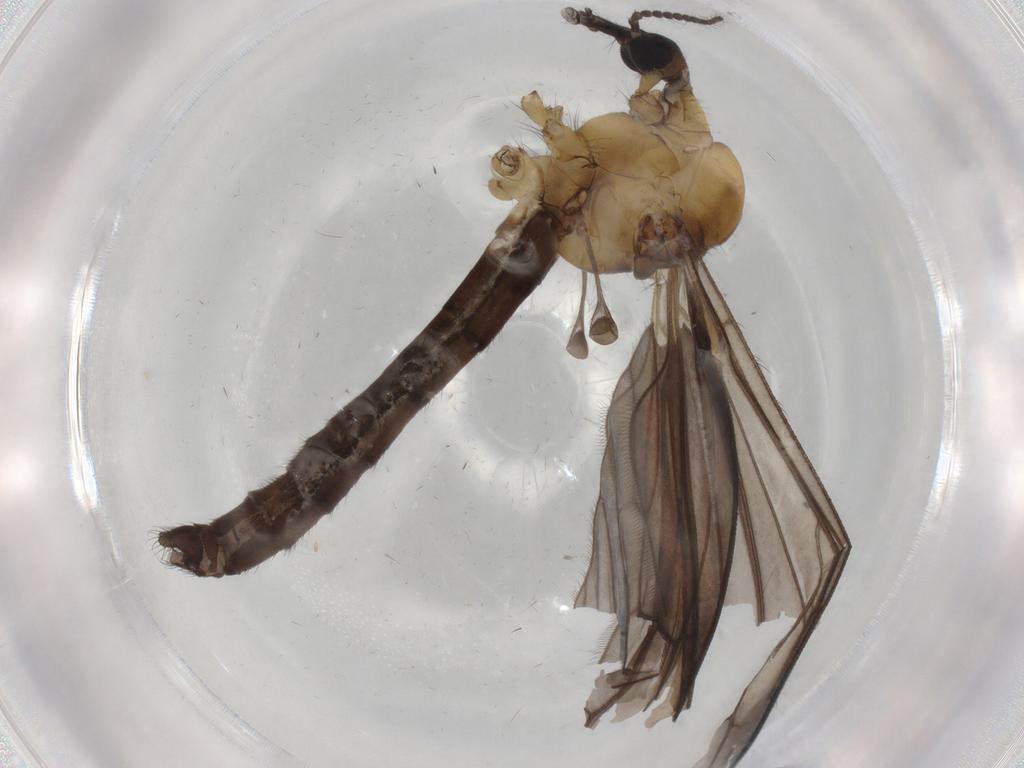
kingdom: Animalia
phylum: Arthropoda
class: Insecta
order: Diptera
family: Limoniidae
